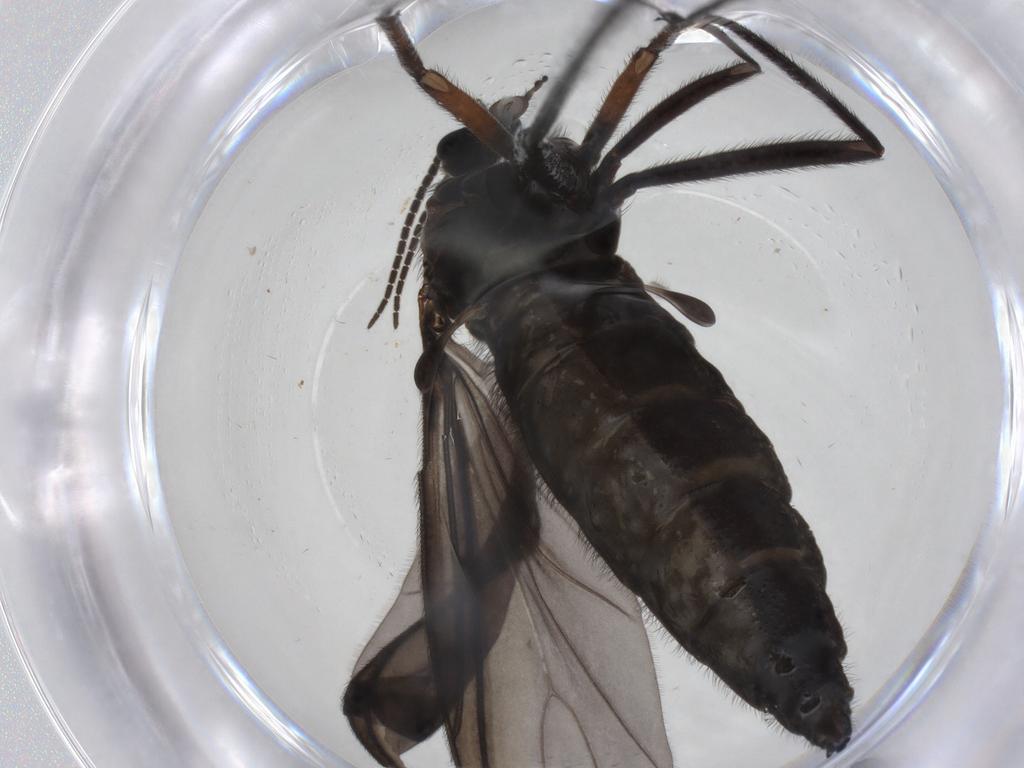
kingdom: Animalia
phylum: Arthropoda
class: Insecta
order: Diptera
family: Sciaridae
